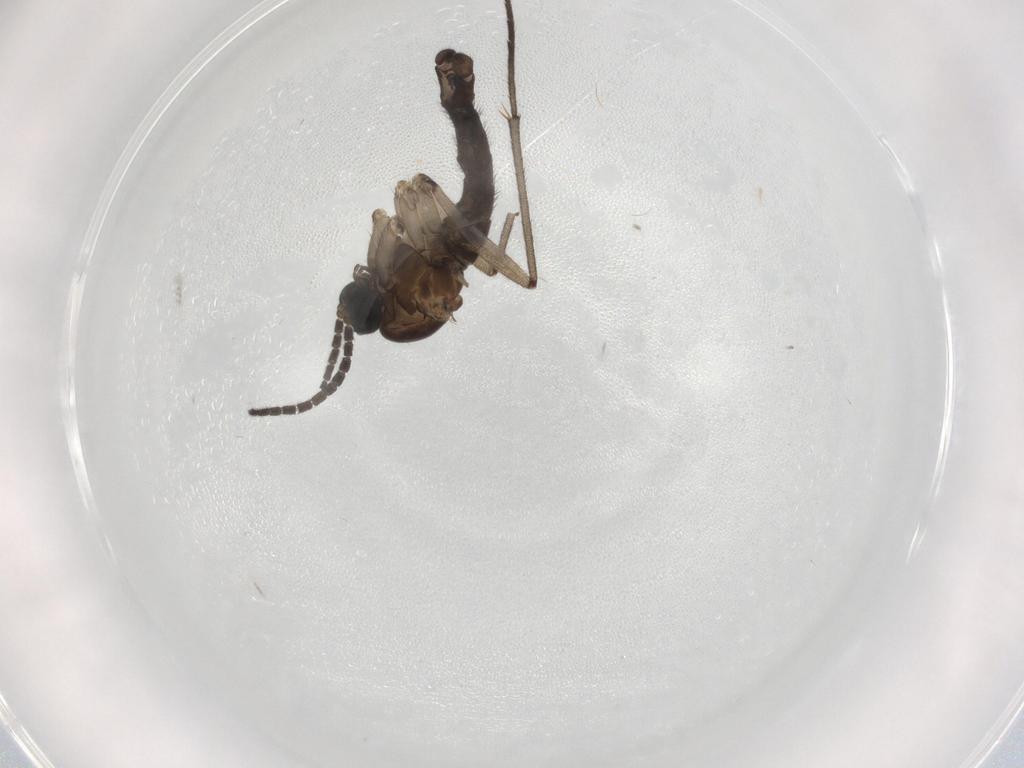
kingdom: Animalia
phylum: Arthropoda
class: Insecta
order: Diptera
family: Sciaridae
